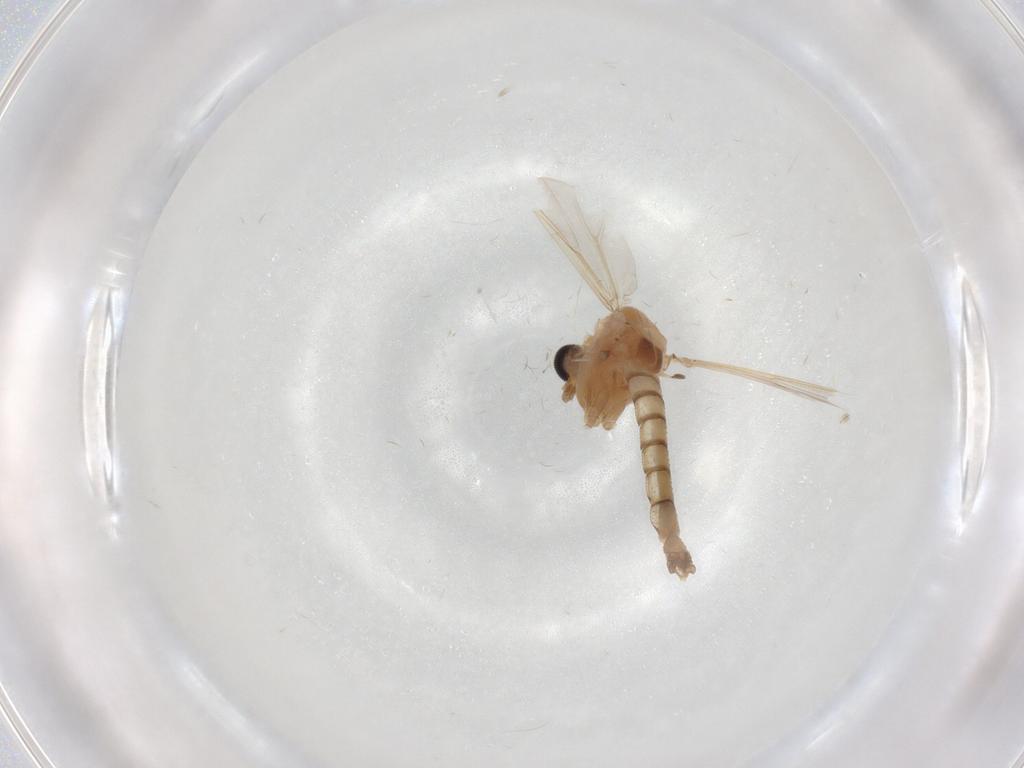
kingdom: Animalia
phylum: Arthropoda
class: Insecta
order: Diptera
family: Chironomidae
